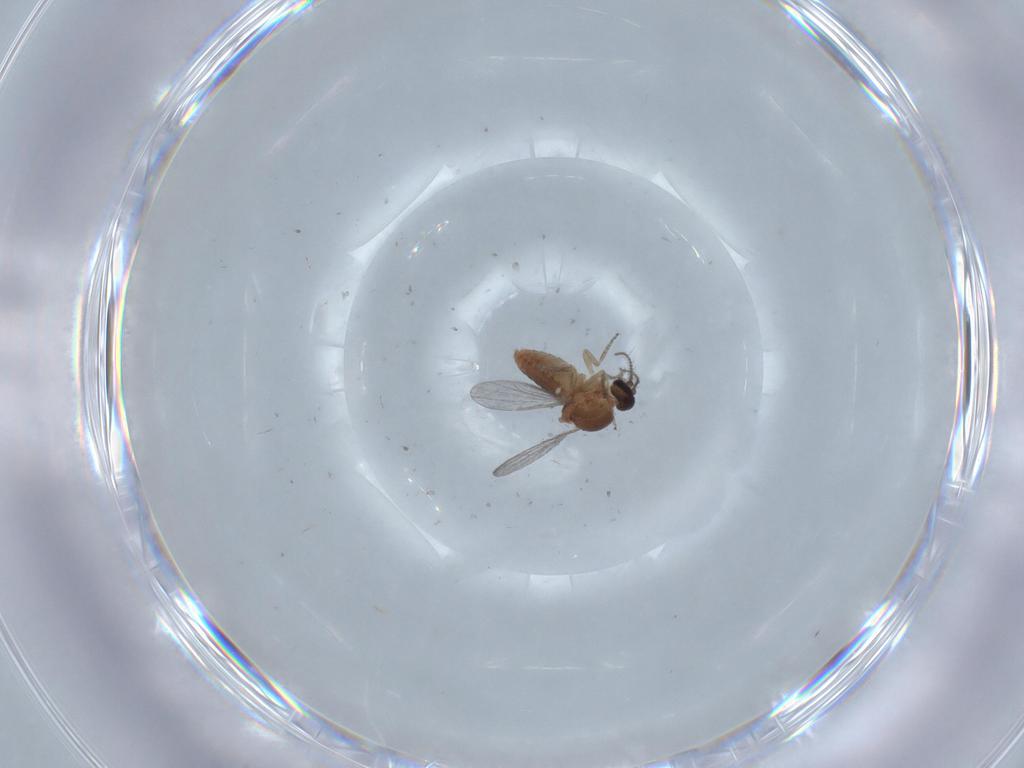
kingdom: Animalia
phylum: Arthropoda
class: Insecta
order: Diptera
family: Ceratopogonidae
